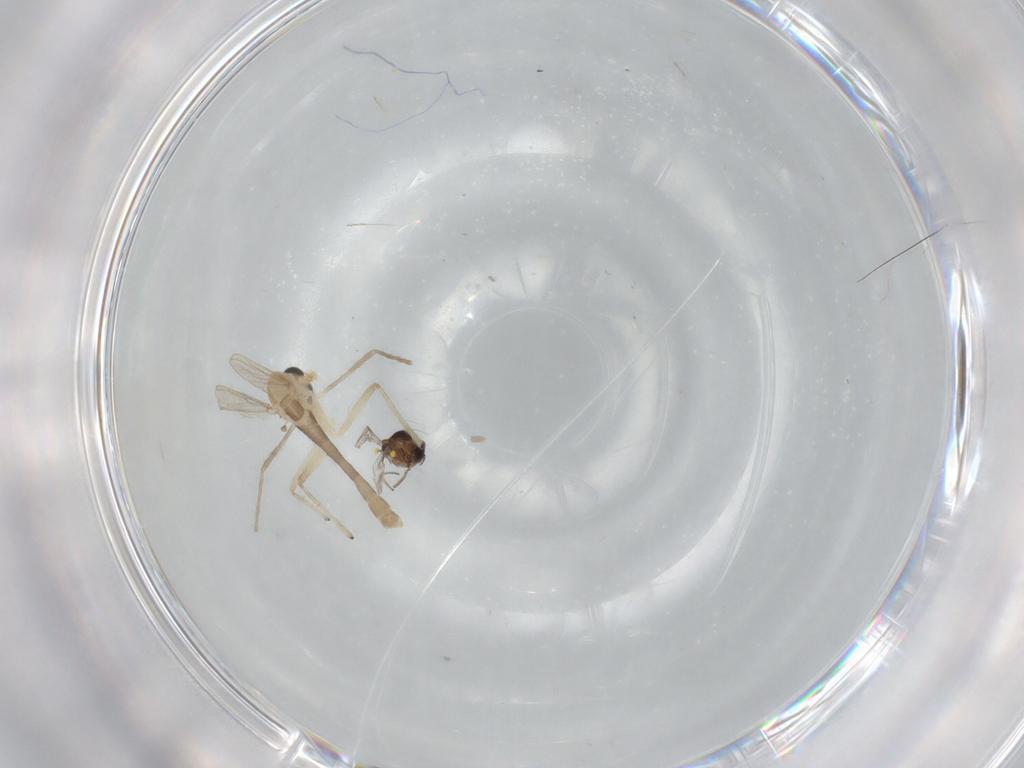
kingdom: Animalia
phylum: Arthropoda
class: Insecta
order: Diptera
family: Chironomidae
